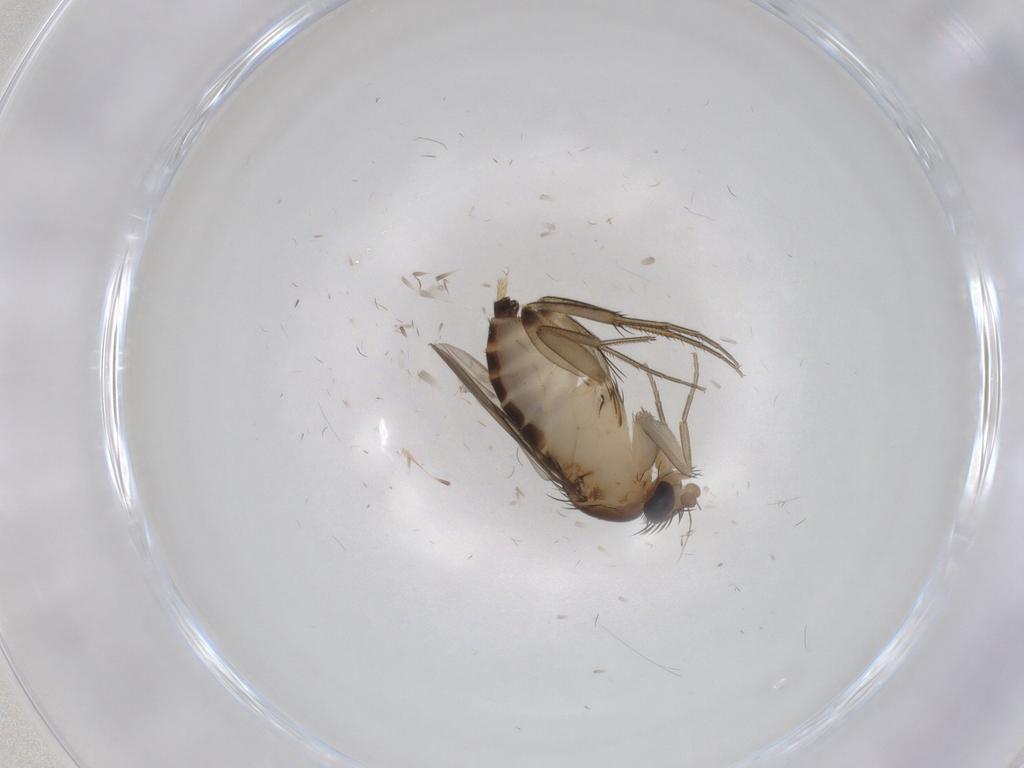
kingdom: Animalia
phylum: Arthropoda
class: Insecta
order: Diptera
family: Phoridae
